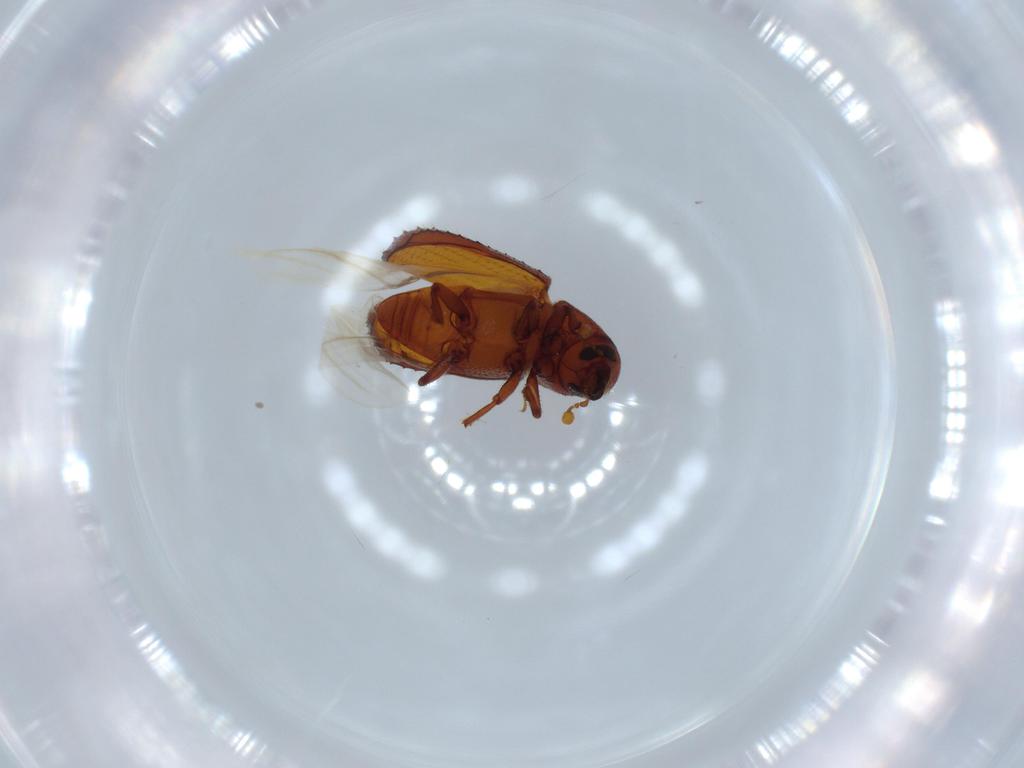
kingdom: Animalia
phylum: Arthropoda
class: Insecta
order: Coleoptera
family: Curculionidae
